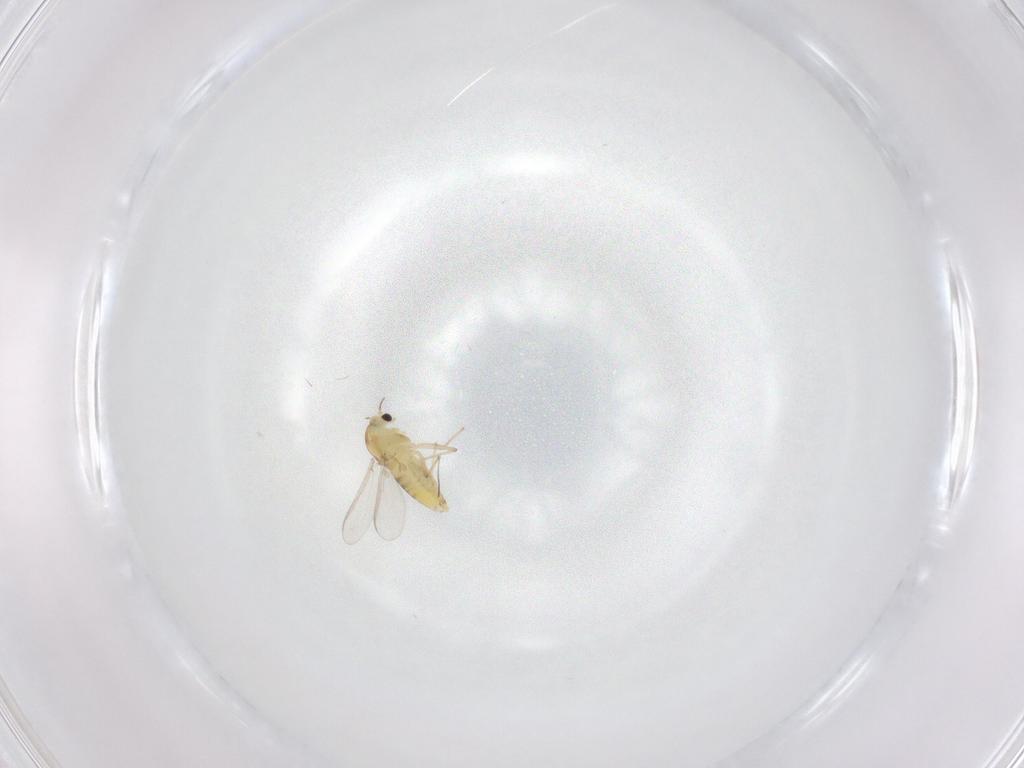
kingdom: Animalia
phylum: Arthropoda
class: Insecta
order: Diptera
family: Chironomidae
